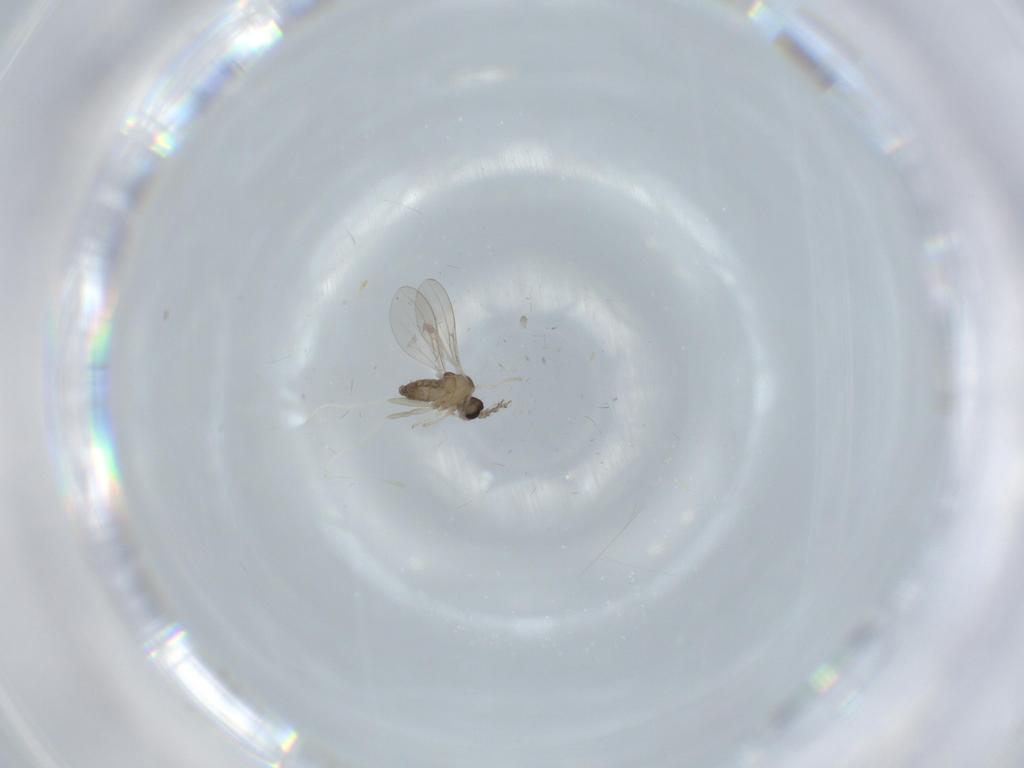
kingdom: Animalia
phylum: Arthropoda
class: Insecta
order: Diptera
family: Cecidomyiidae
